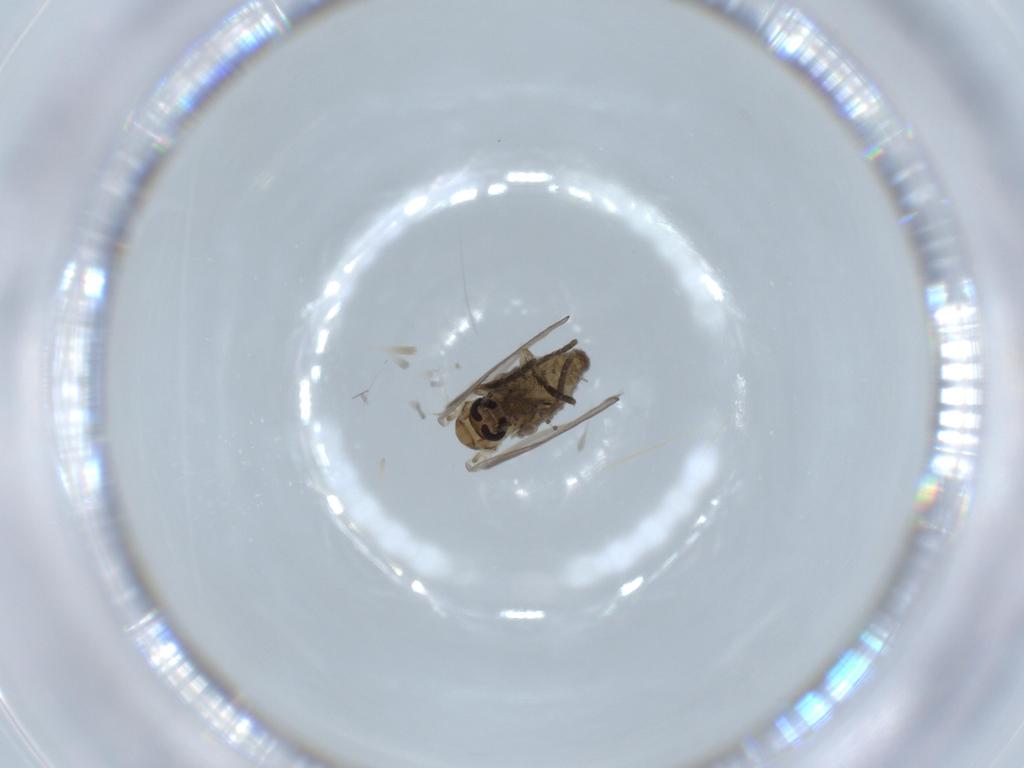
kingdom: Animalia
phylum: Arthropoda
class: Insecta
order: Diptera
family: Psychodidae
